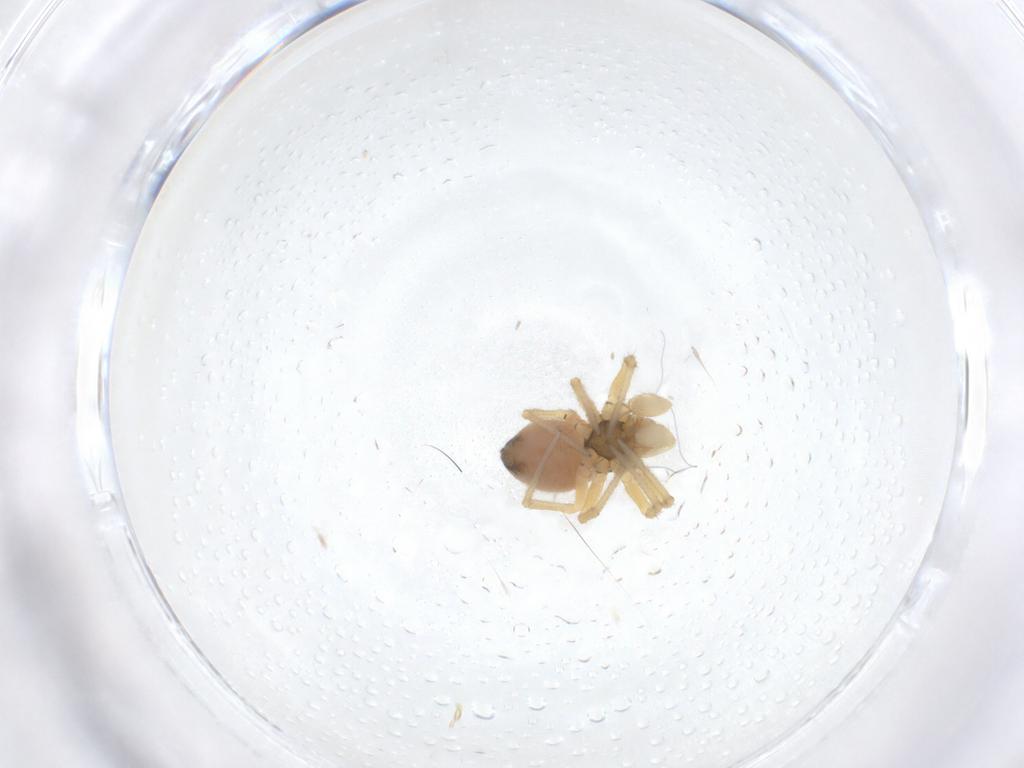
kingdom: Animalia
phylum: Arthropoda
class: Arachnida
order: Araneae
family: Linyphiidae
